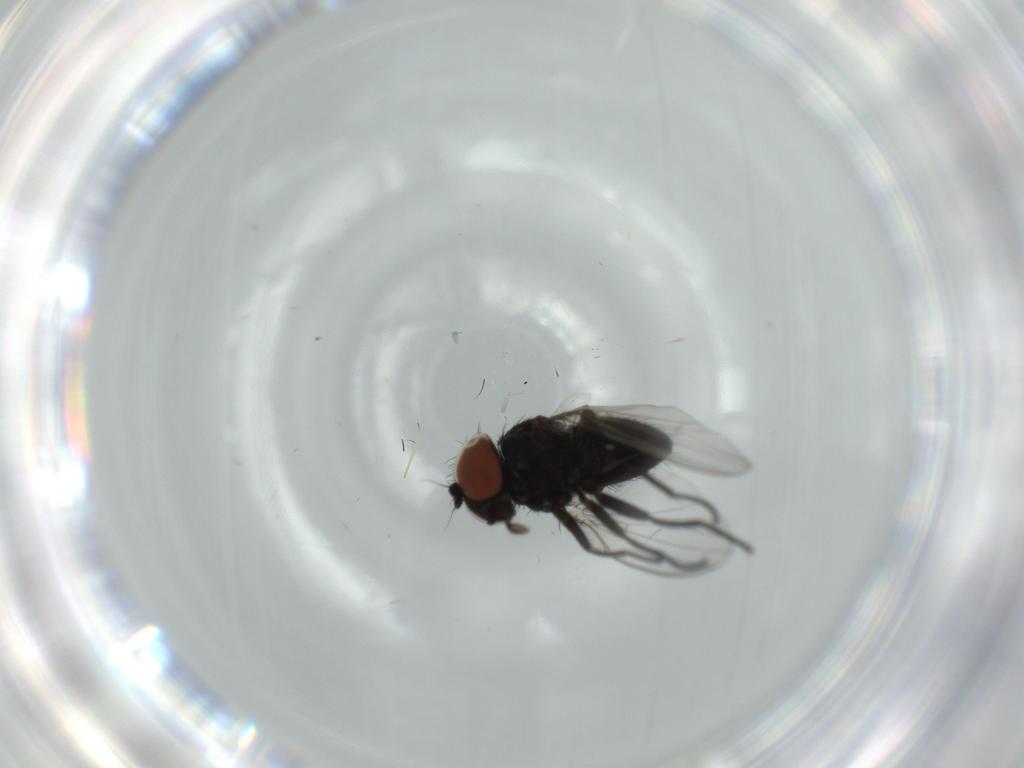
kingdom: Animalia
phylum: Arthropoda
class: Insecta
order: Diptera
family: Milichiidae
